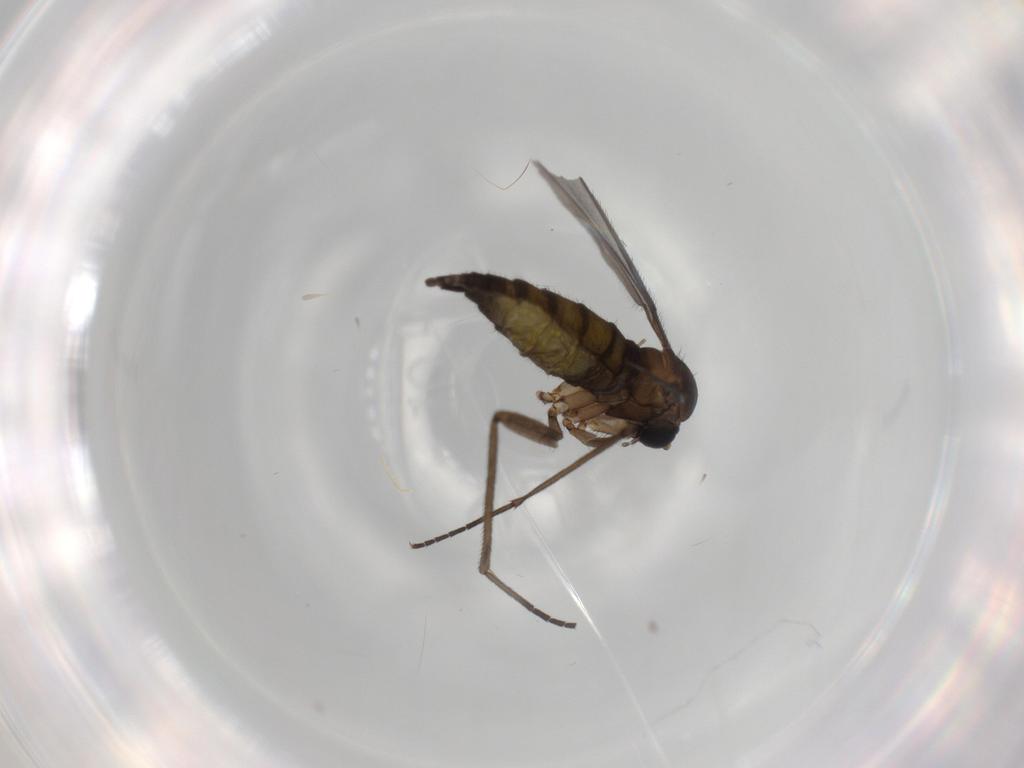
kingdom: Animalia
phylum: Arthropoda
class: Insecta
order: Diptera
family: Sciaridae
